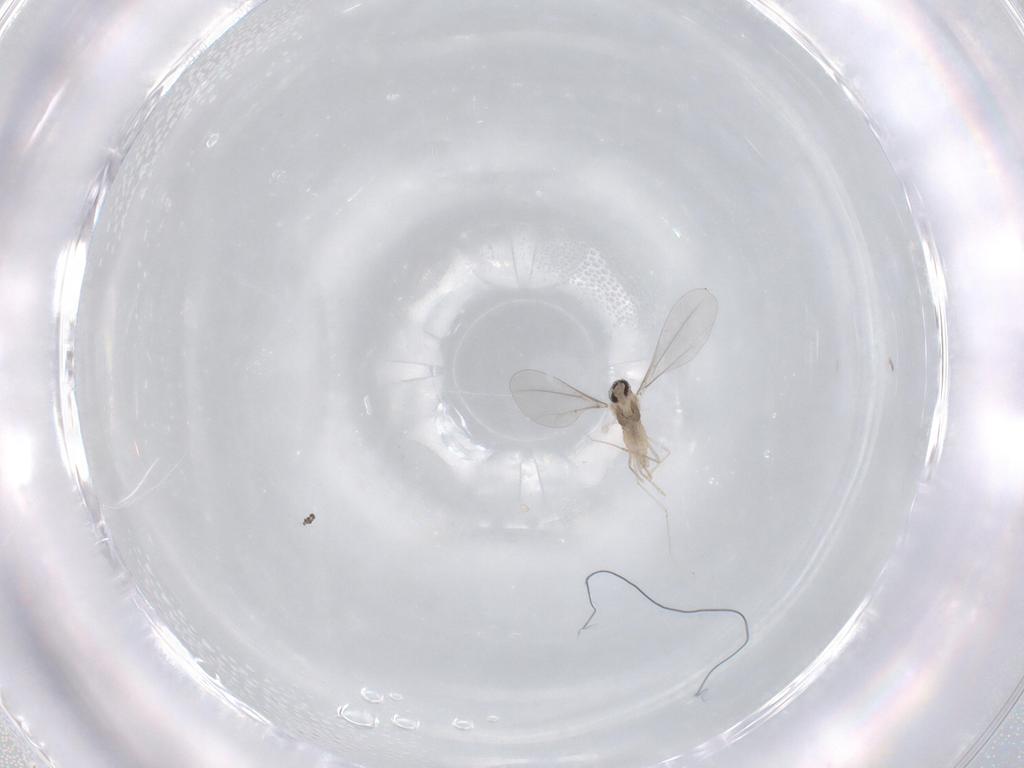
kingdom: Animalia
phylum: Arthropoda
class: Insecta
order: Diptera
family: Cecidomyiidae
